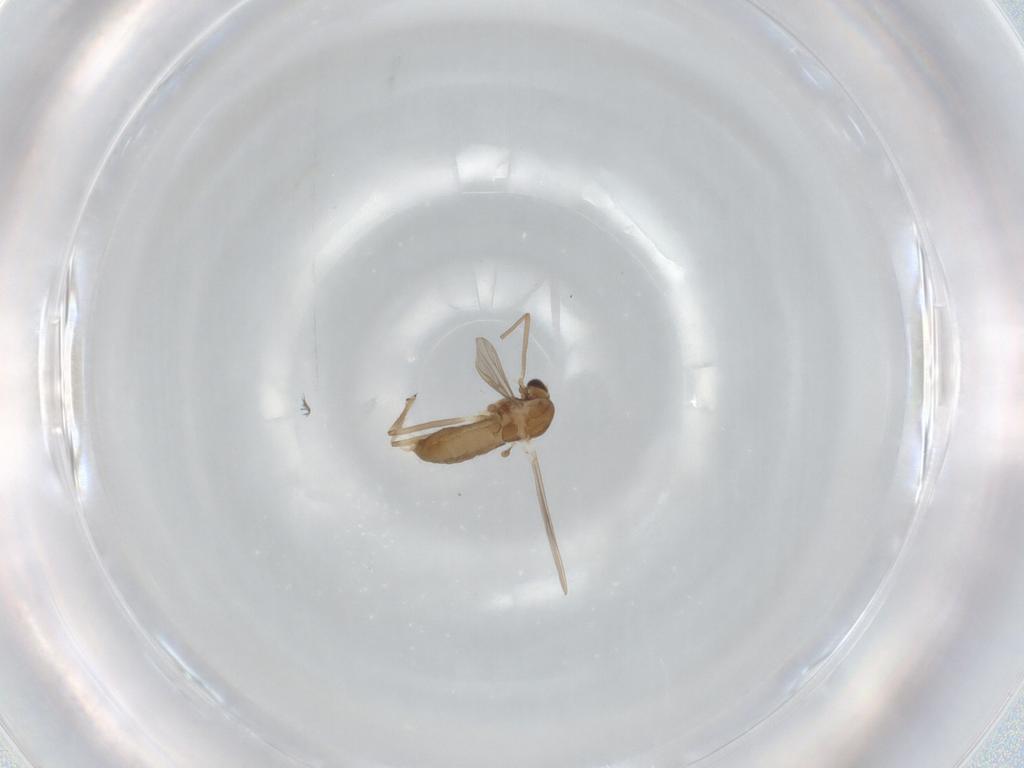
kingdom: Animalia
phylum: Arthropoda
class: Insecta
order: Diptera
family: Chironomidae
